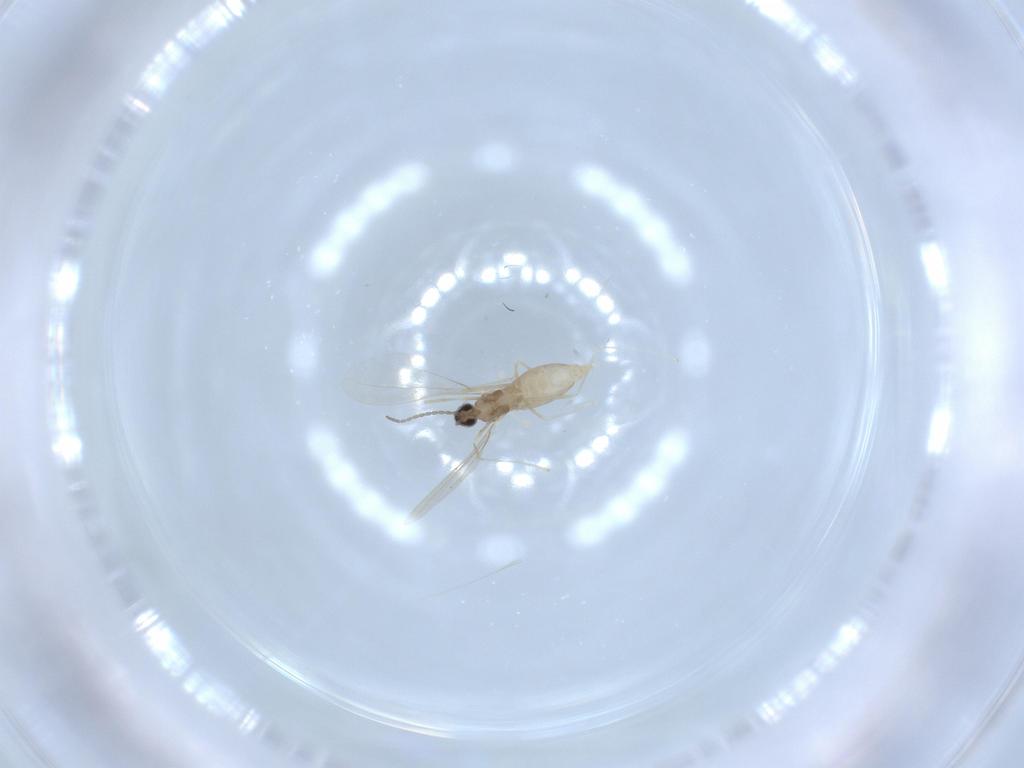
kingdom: Animalia
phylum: Arthropoda
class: Insecta
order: Diptera
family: Cecidomyiidae
